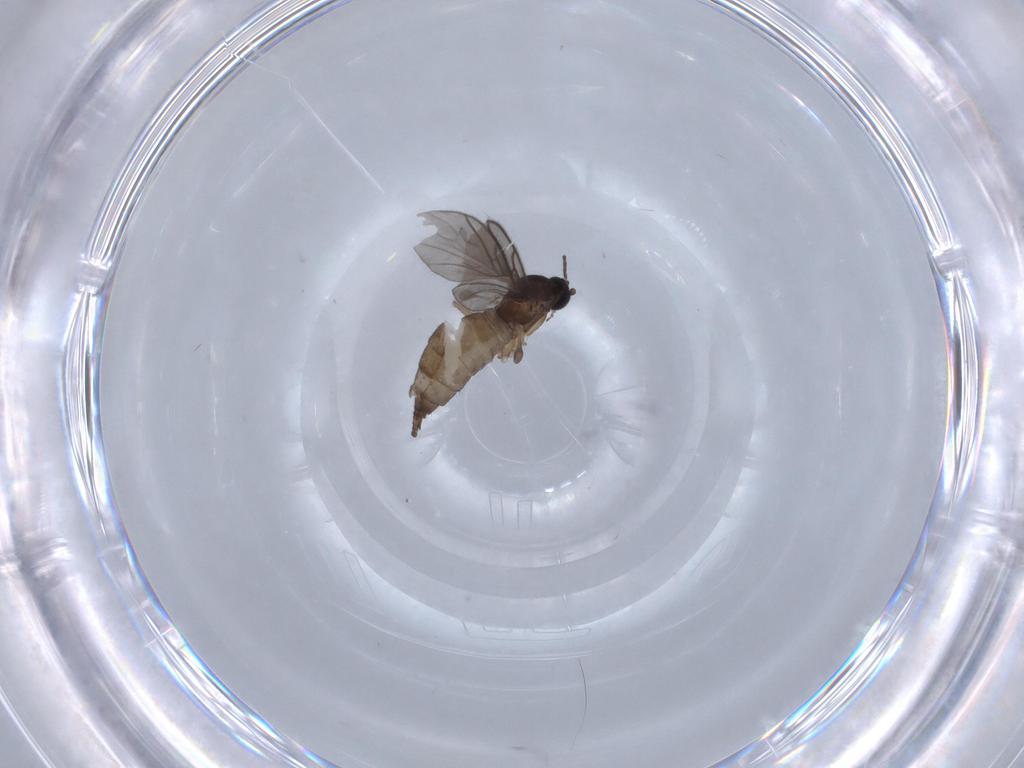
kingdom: Animalia
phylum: Arthropoda
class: Insecta
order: Diptera
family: Sciaridae
